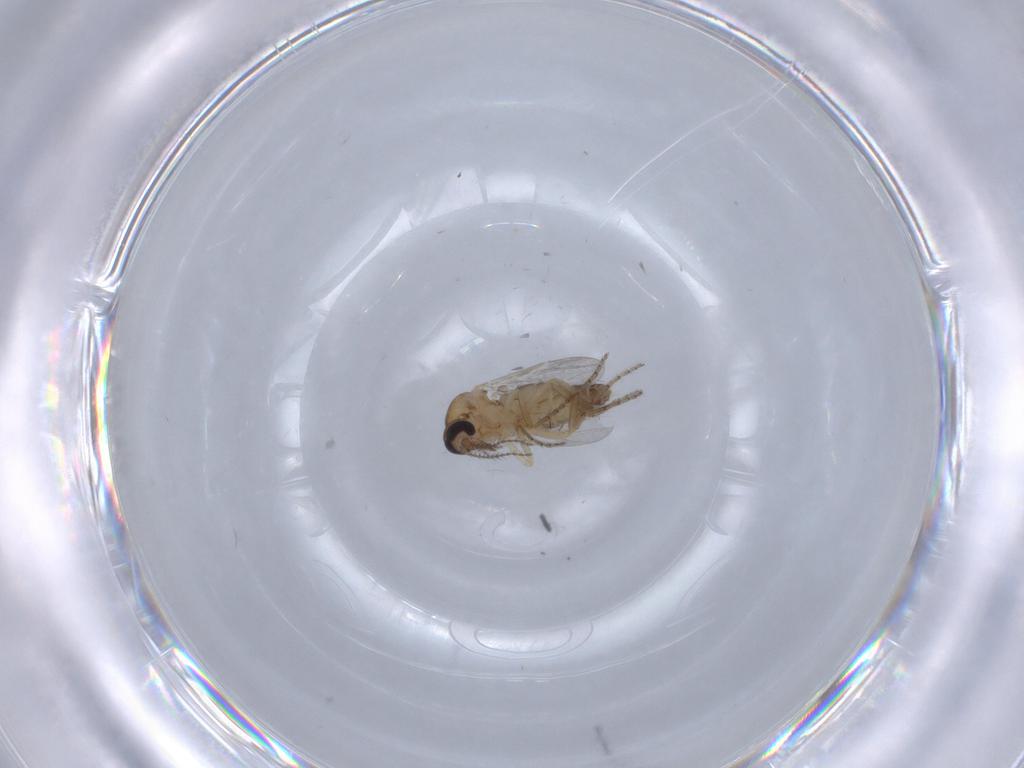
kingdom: Animalia
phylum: Arthropoda
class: Insecta
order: Diptera
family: Ceratopogonidae
